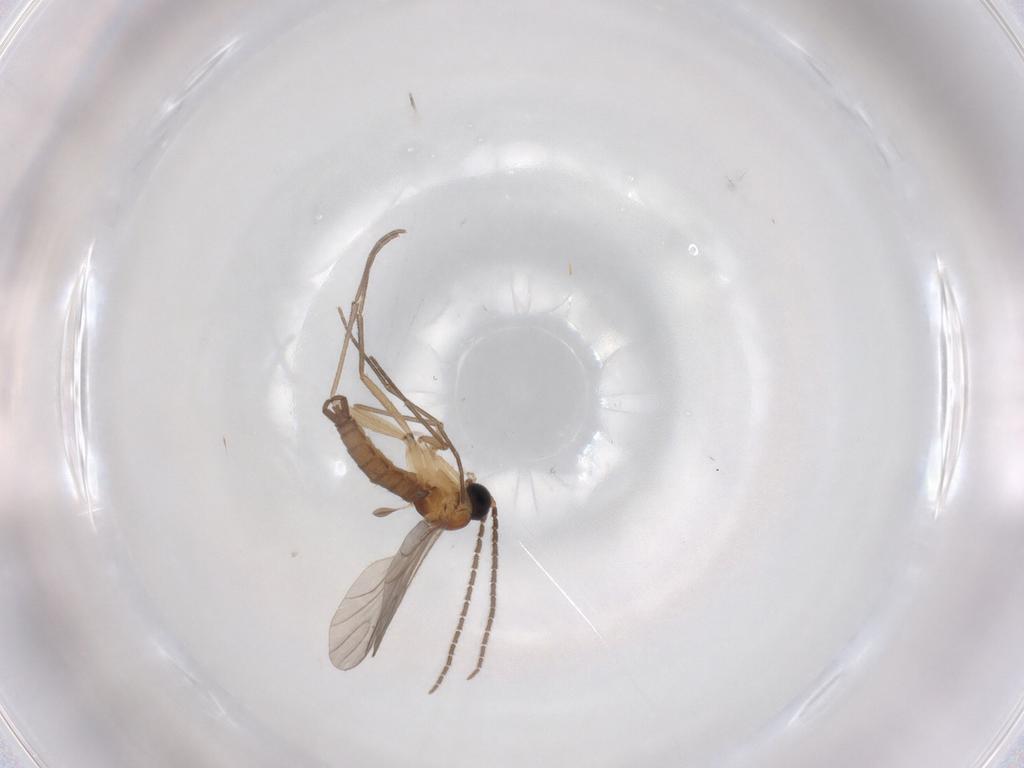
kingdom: Animalia
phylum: Arthropoda
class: Insecta
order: Diptera
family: Sciaridae
